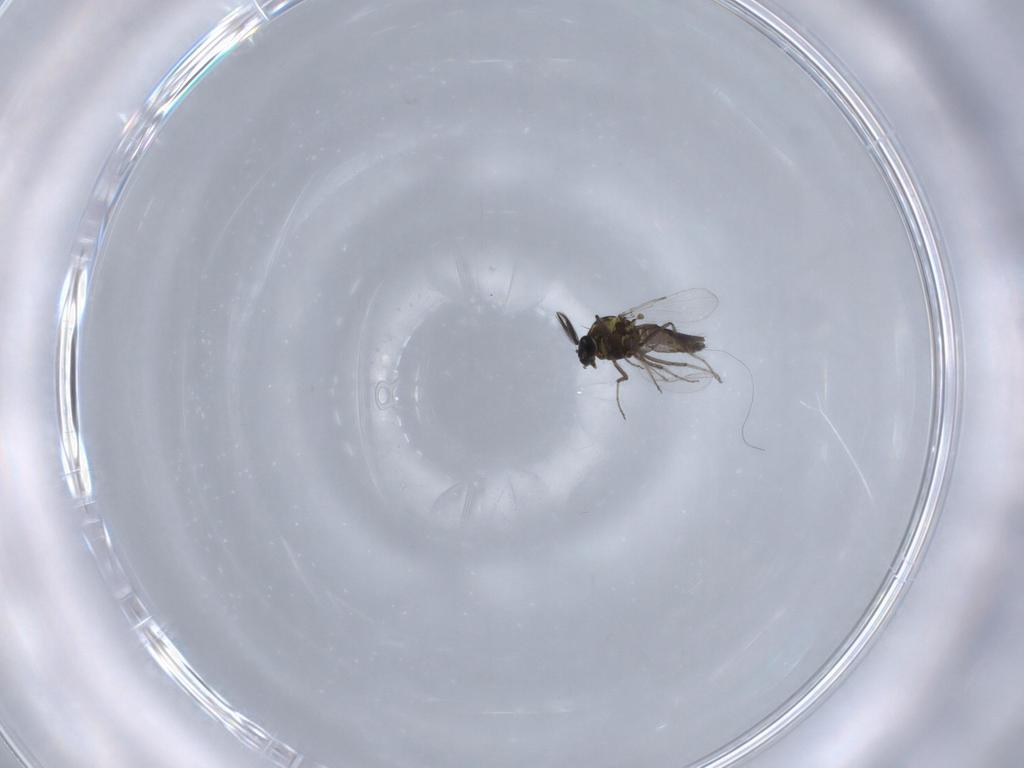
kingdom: Animalia
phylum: Arthropoda
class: Insecta
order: Diptera
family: Ceratopogonidae
